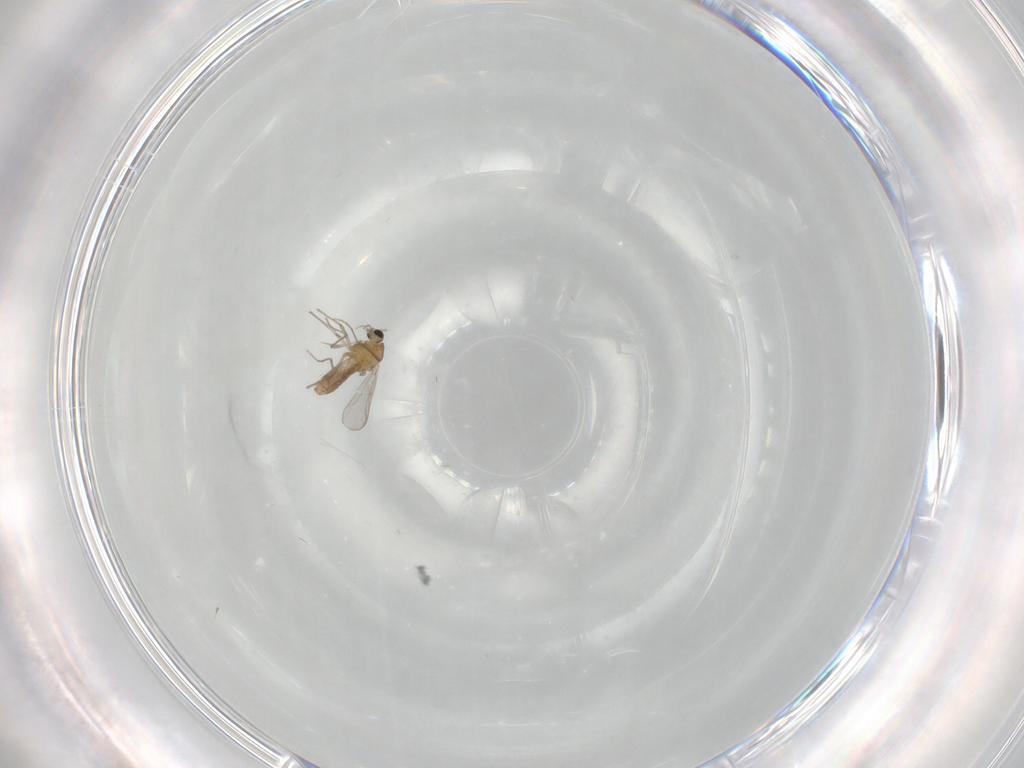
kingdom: Animalia
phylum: Arthropoda
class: Insecta
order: Diptera
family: Chironomidae
